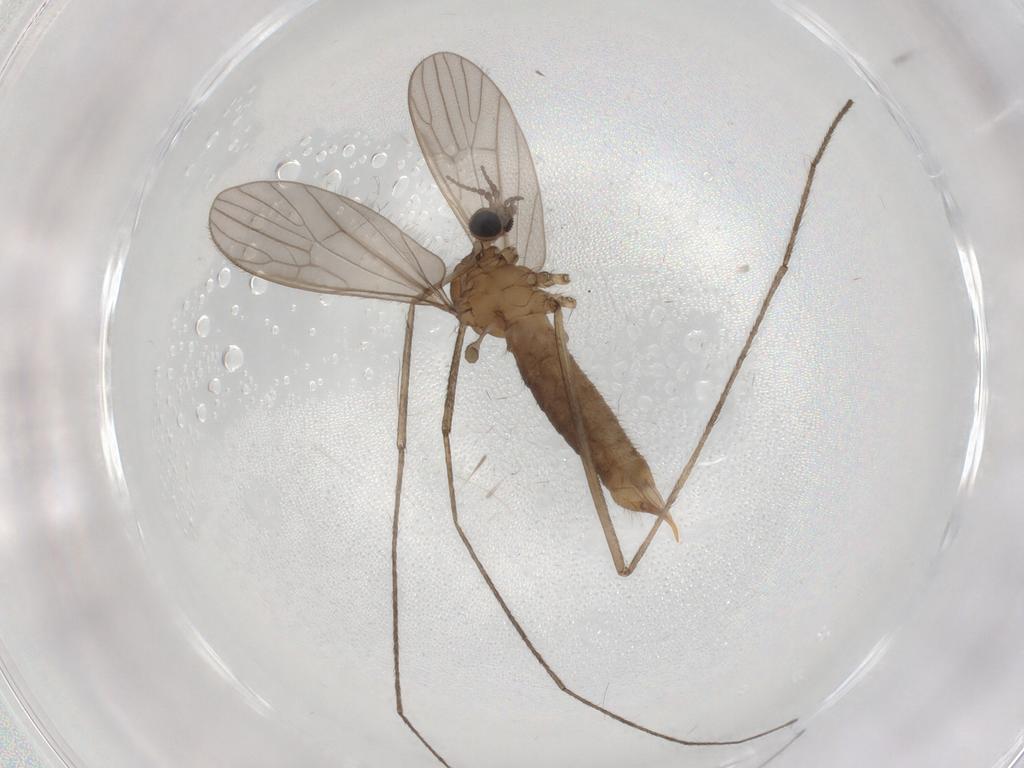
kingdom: Animalia
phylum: Arthropoda
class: Insecta
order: Diptera
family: Limoniidae
